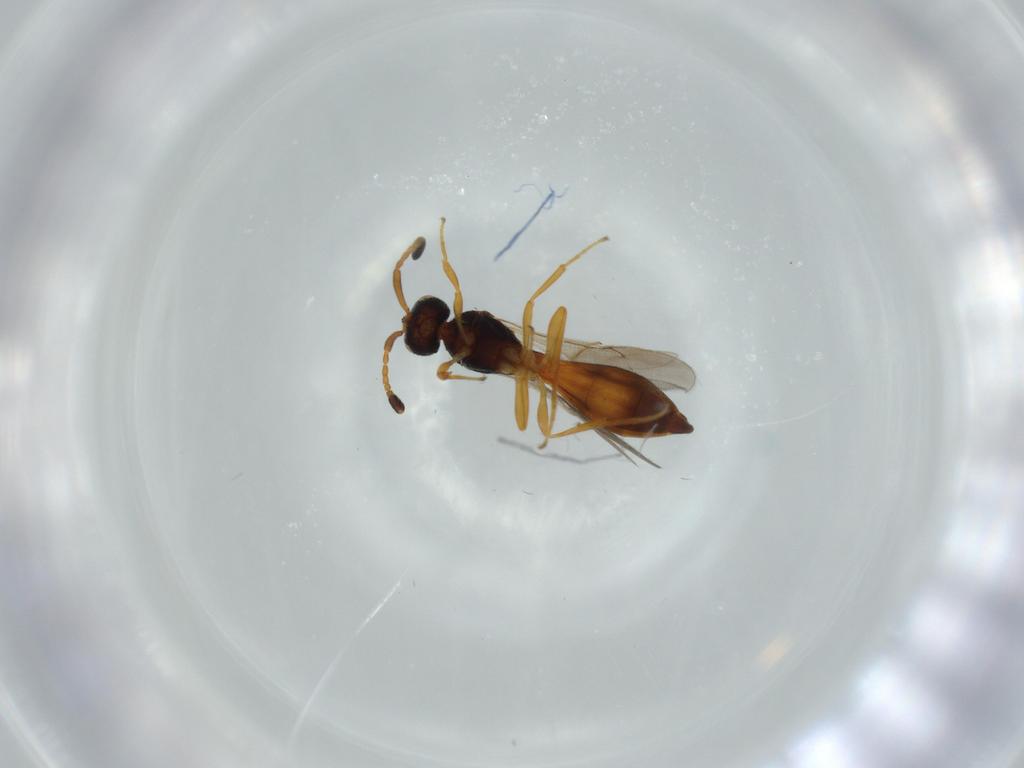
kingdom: Animalia
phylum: Arthropoda
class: Insecta
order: Hymenoptera
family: Scelionidae
